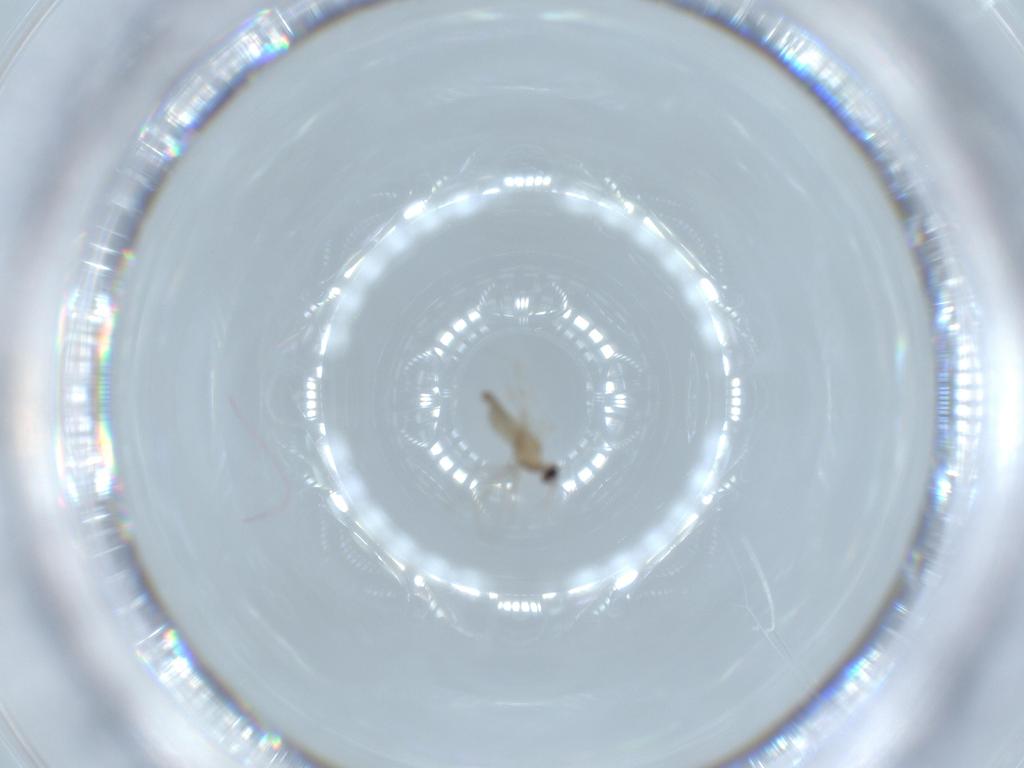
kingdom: Animalia
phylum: Arthropoda
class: Insecta
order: Diptera
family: Cecidomyiidae
